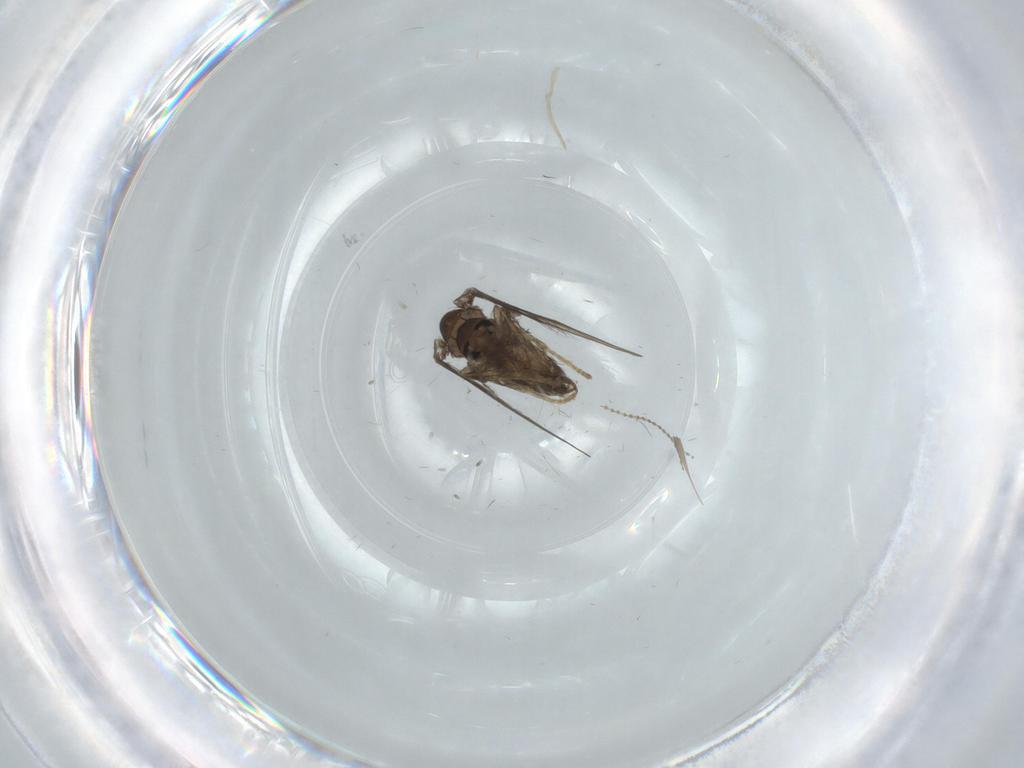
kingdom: Animalia
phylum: Arthropoda
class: Insecta
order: Diptera
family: Psychodidae
